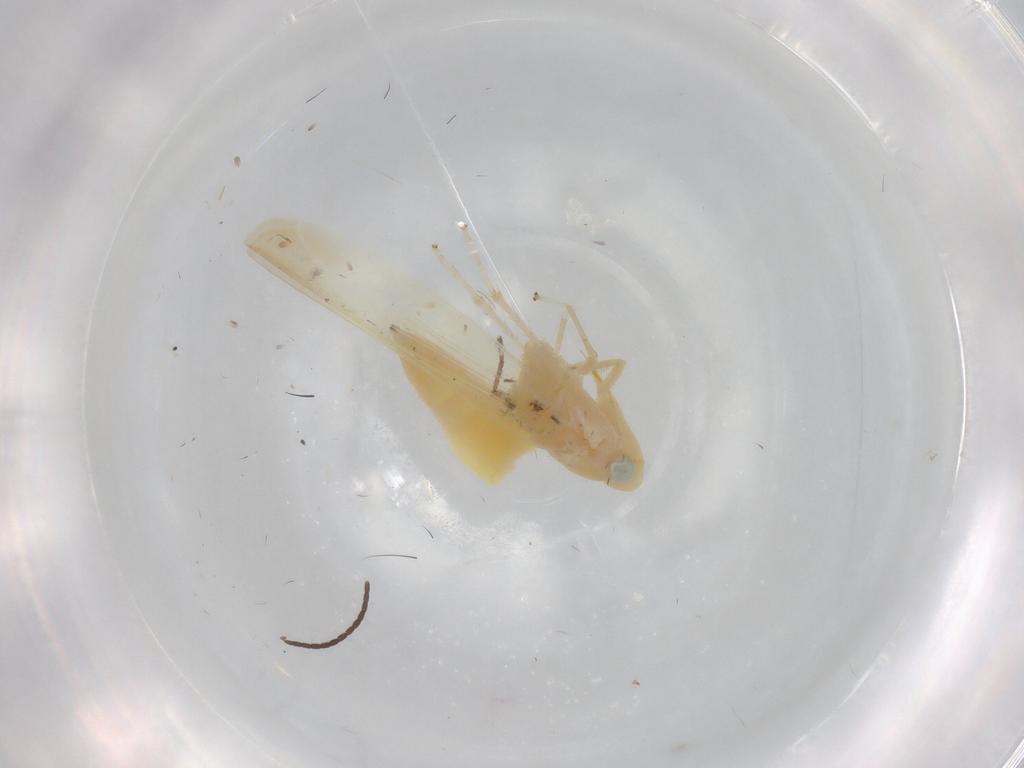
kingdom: Animalia
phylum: Arthropoda
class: Insecta
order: Hemiptera
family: Cicadellidae
